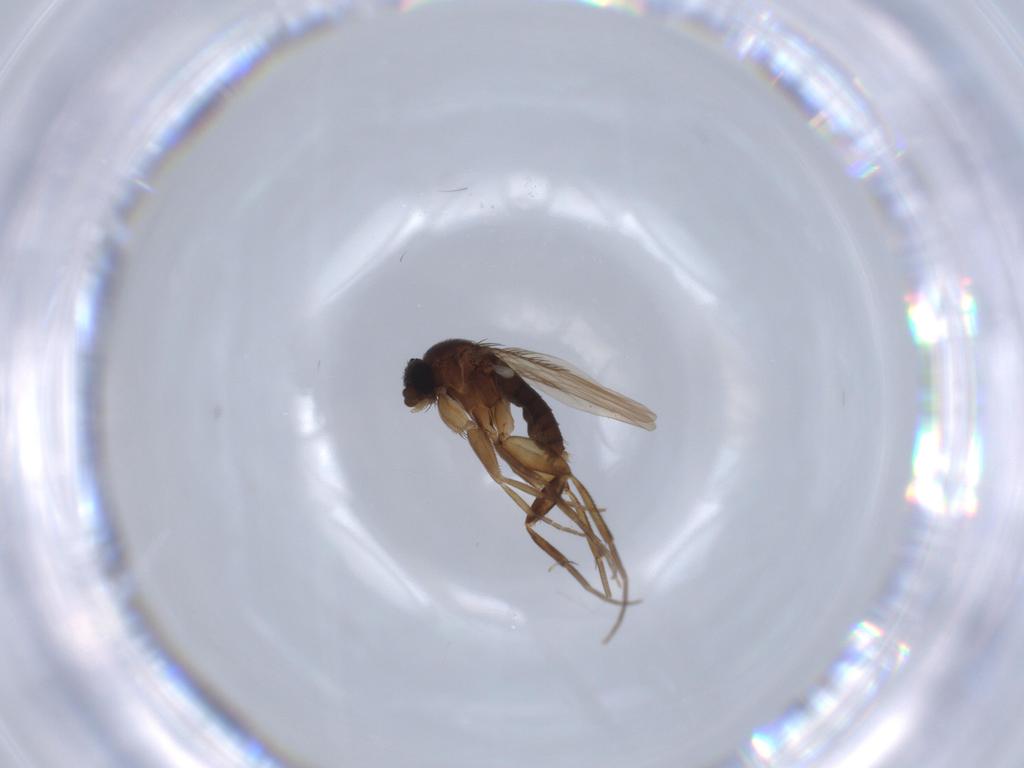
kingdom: Animalia
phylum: Arthropoda
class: Insecta
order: Diptera
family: Phoridae
